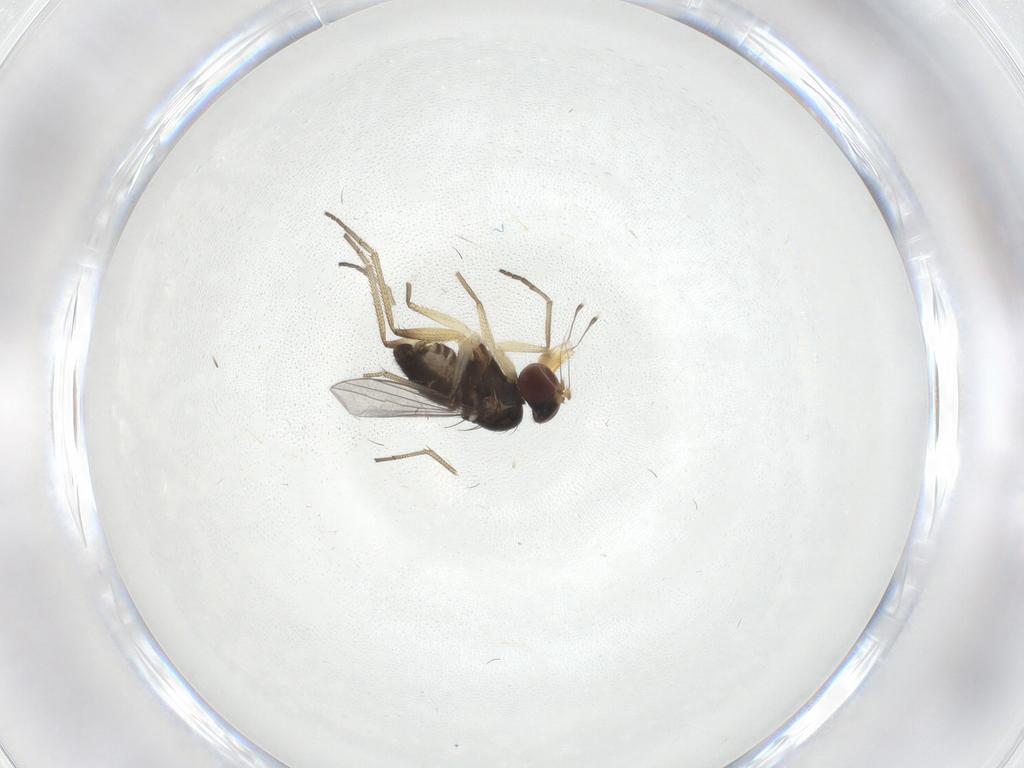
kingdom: Animalia
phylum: Arthropoda
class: Insecta
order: Diptera
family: Dolichopodidae
